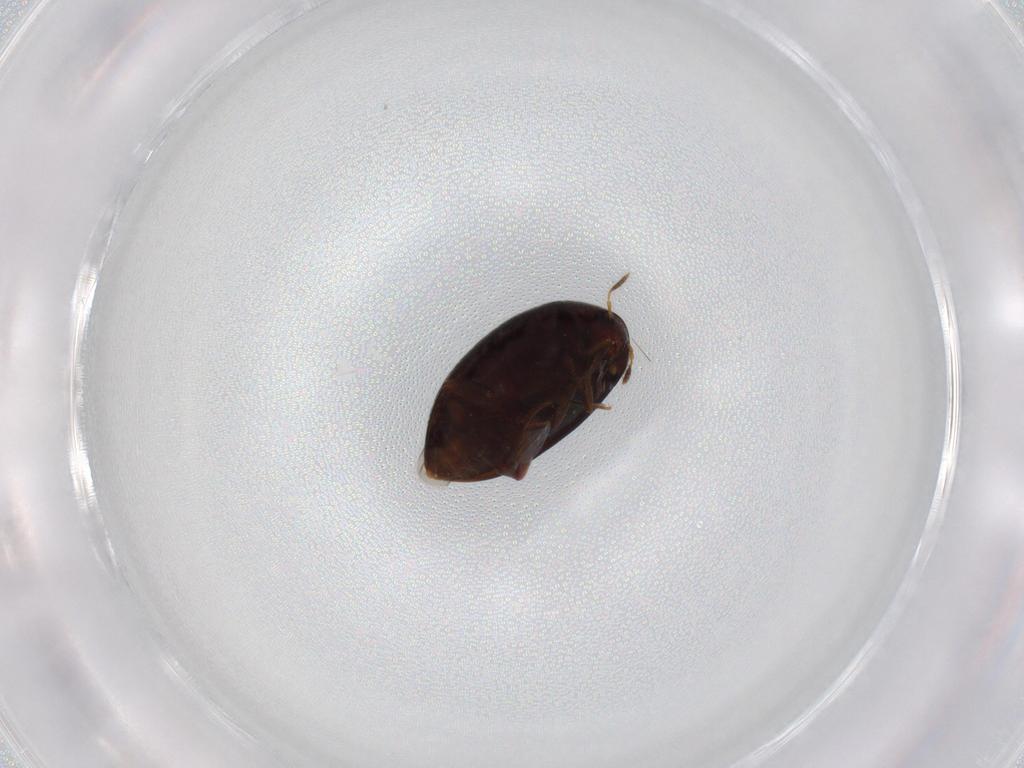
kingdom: Animalia
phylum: Arthropoda
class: Insecta
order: Coleoptera
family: Melandryidae
